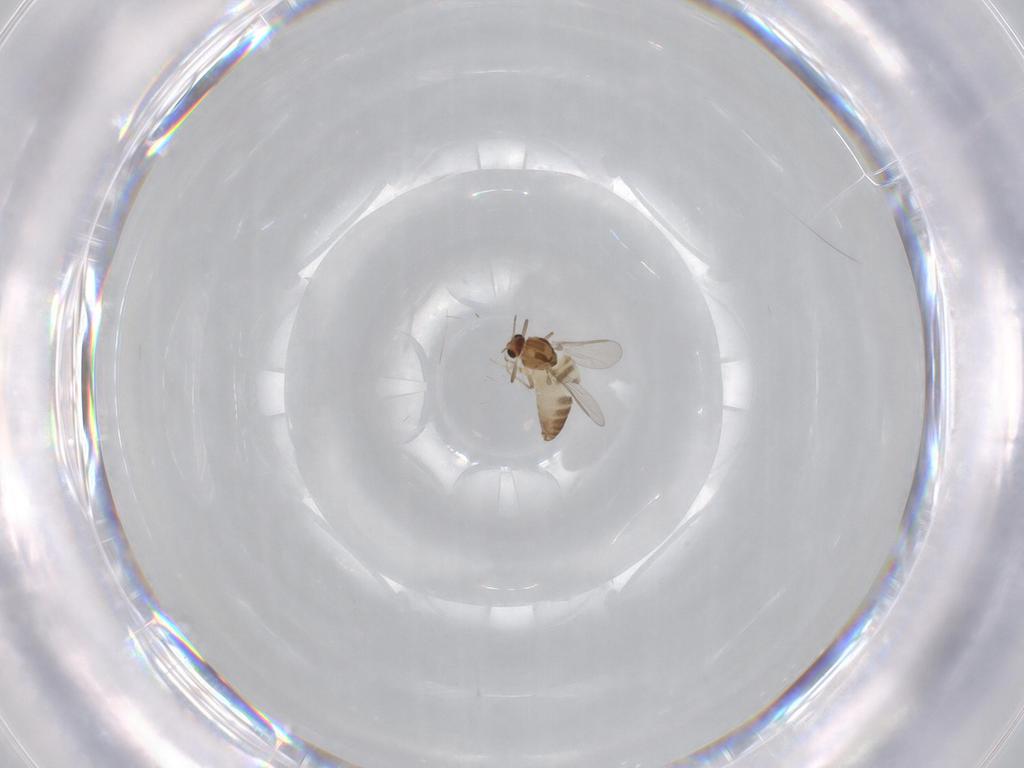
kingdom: Animalia
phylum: Arthropoda
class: Insecta
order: Diptera
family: Chironomidae
